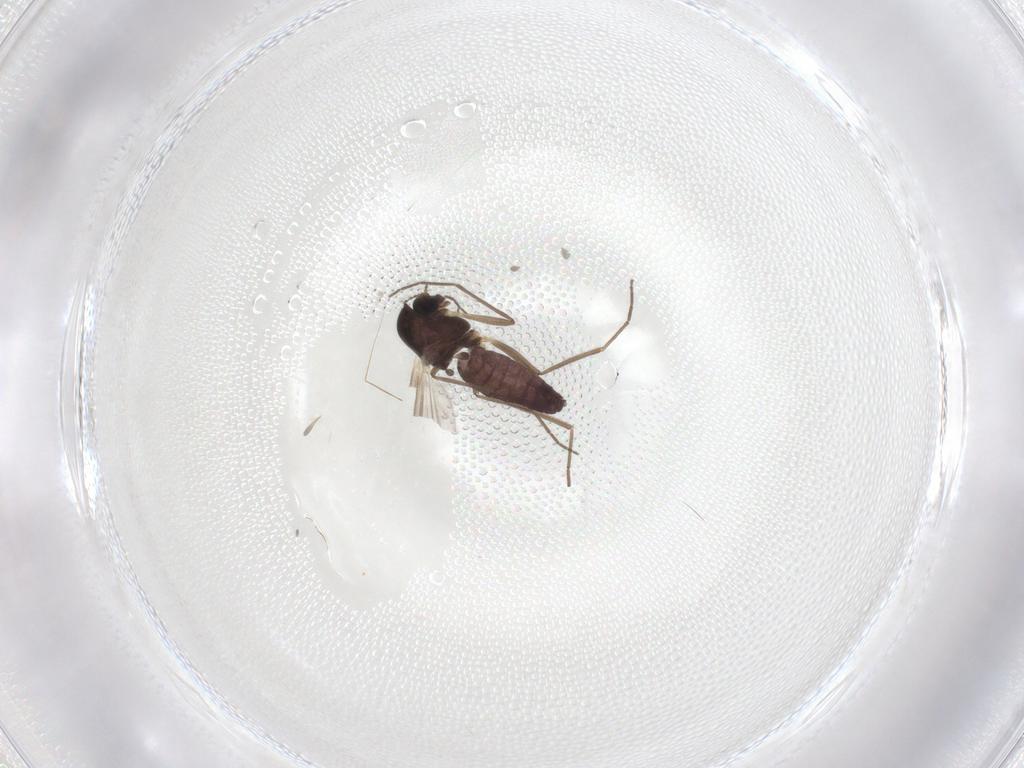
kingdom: Animalia
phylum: Arthropoda
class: Insecta
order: Diptera
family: Chironomidae
